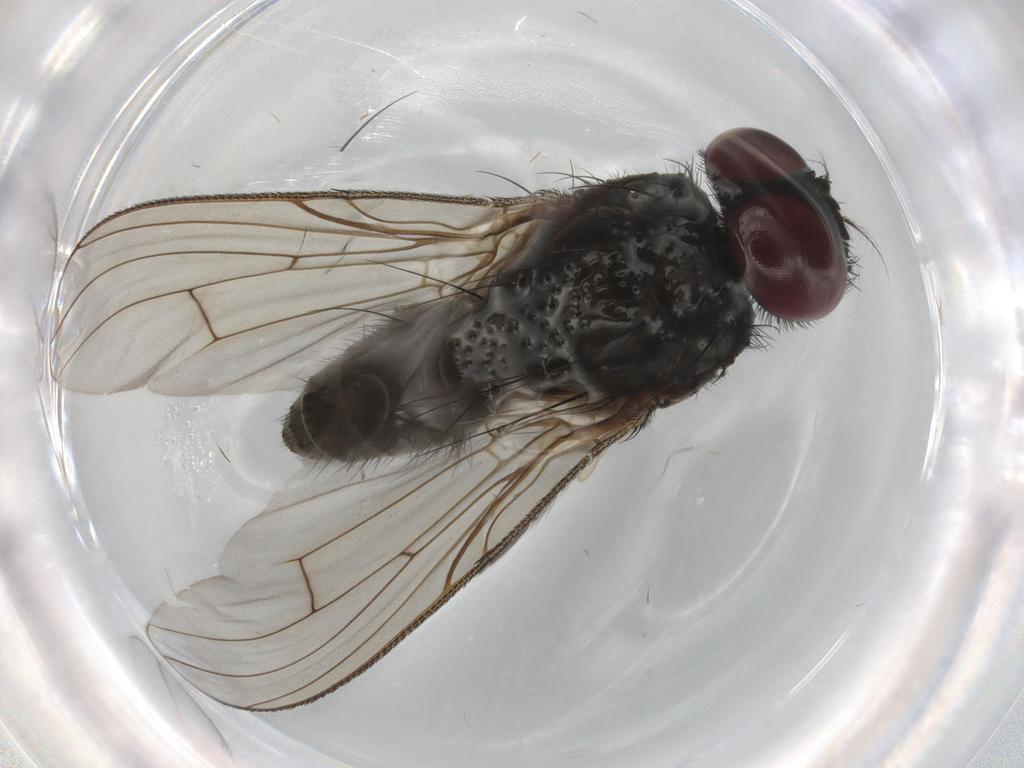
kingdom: Animalia
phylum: Arthropoda
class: Insecta
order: Diptera
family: Muscidae
